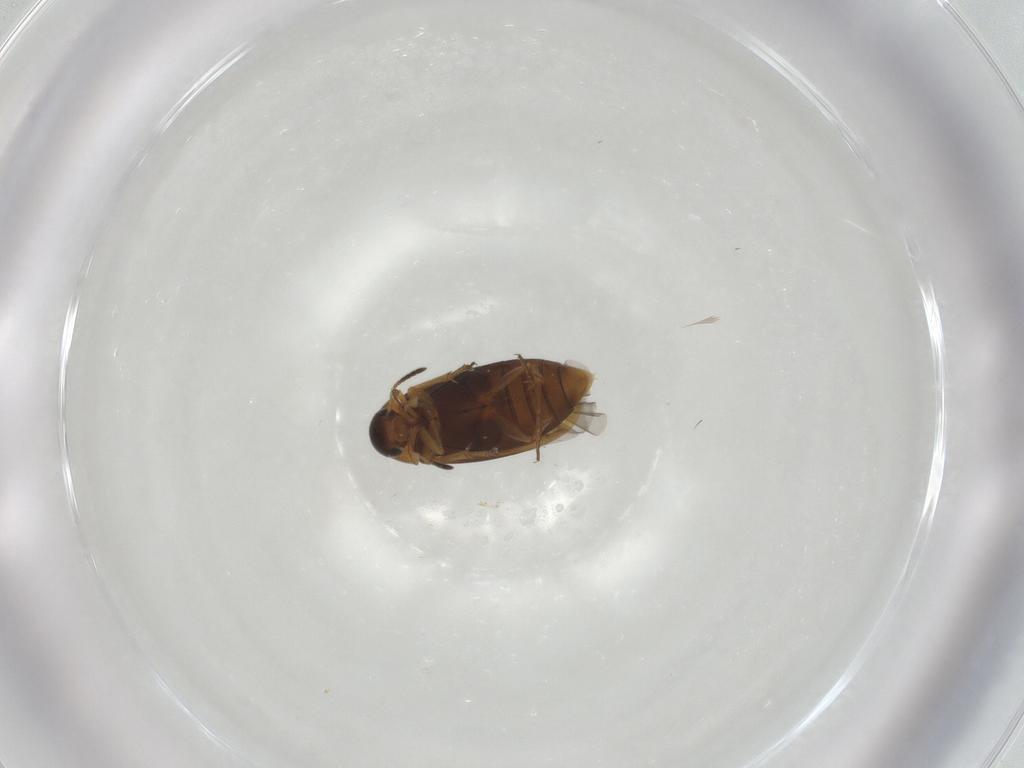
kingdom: Animalia
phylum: Arthropoda
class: Insecta
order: Coleoptera
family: Scraptiidae
